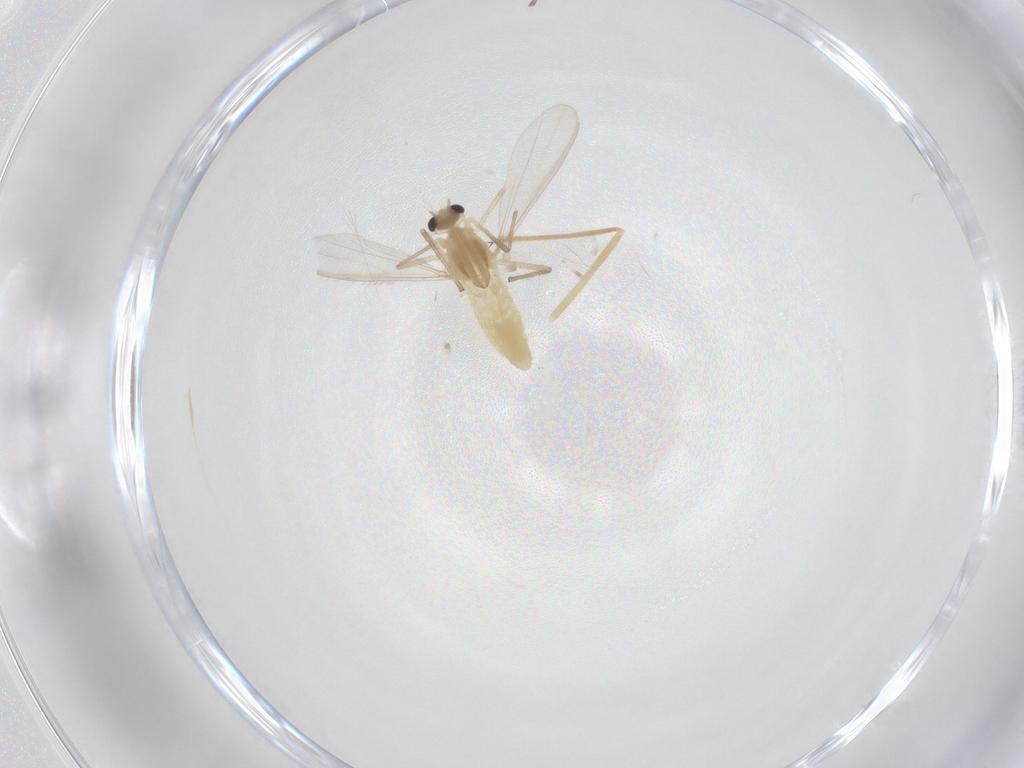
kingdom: Animalia
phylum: Arthropoda
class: Insecta
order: Diptera
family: Chironomidae
